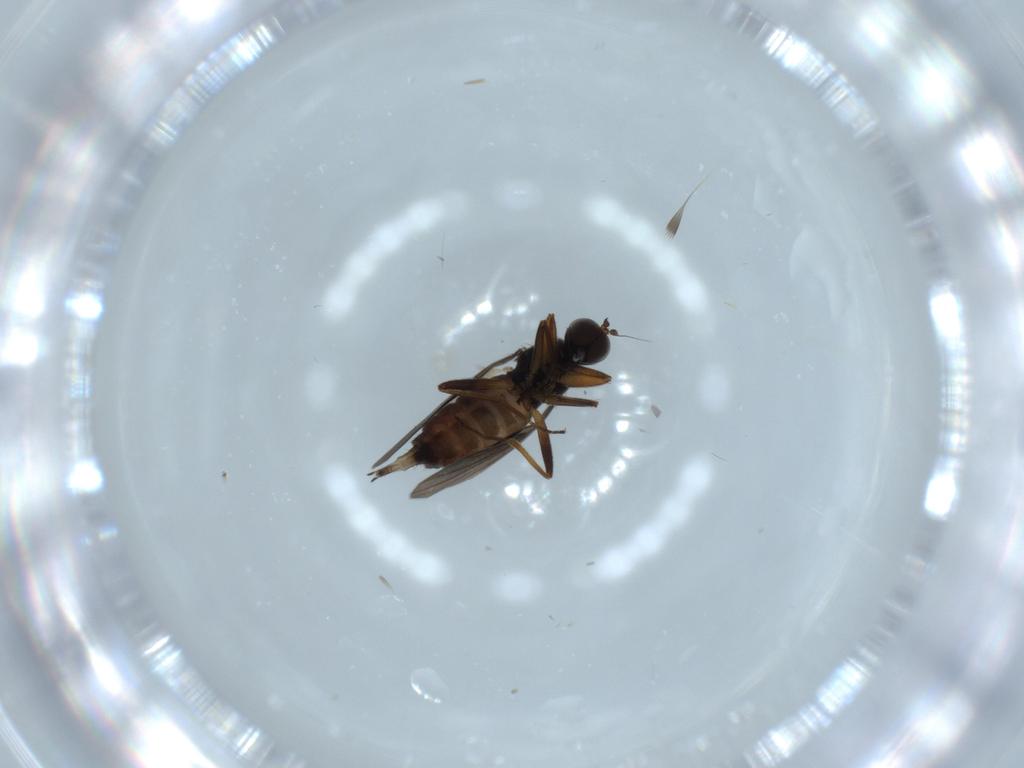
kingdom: Animalia
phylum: Arthropoda
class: Insecta
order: Diptera
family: Hybotidae
